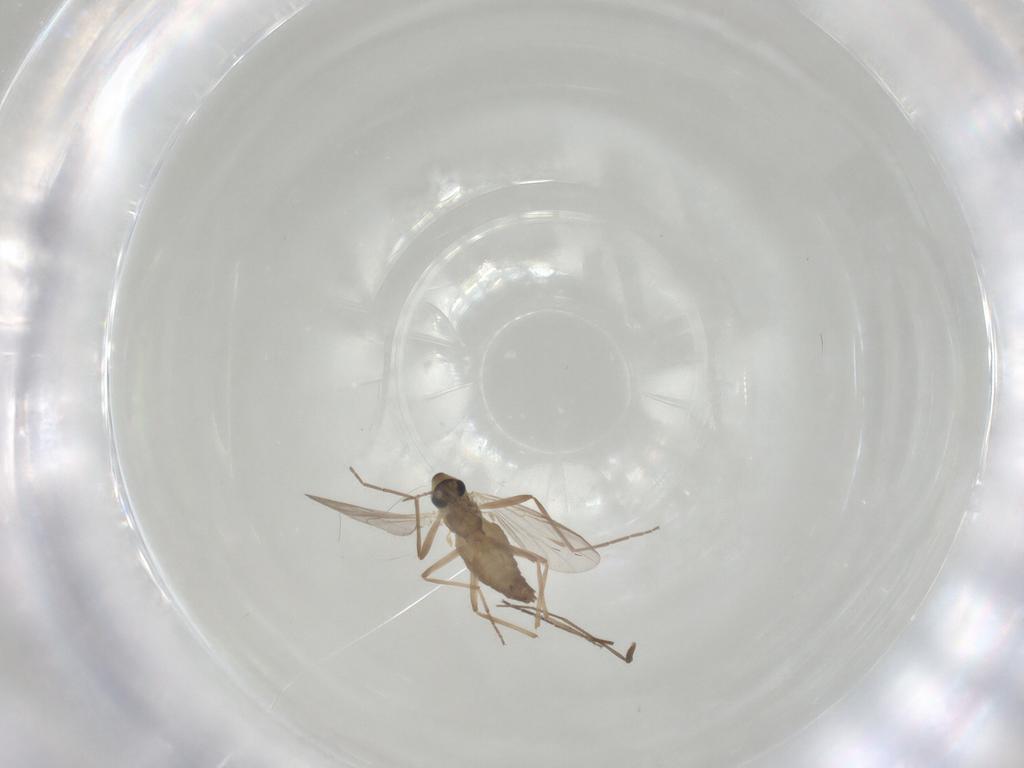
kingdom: Animalia
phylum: Arthropoda
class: Insecta
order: Diptera
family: Chironomidae
